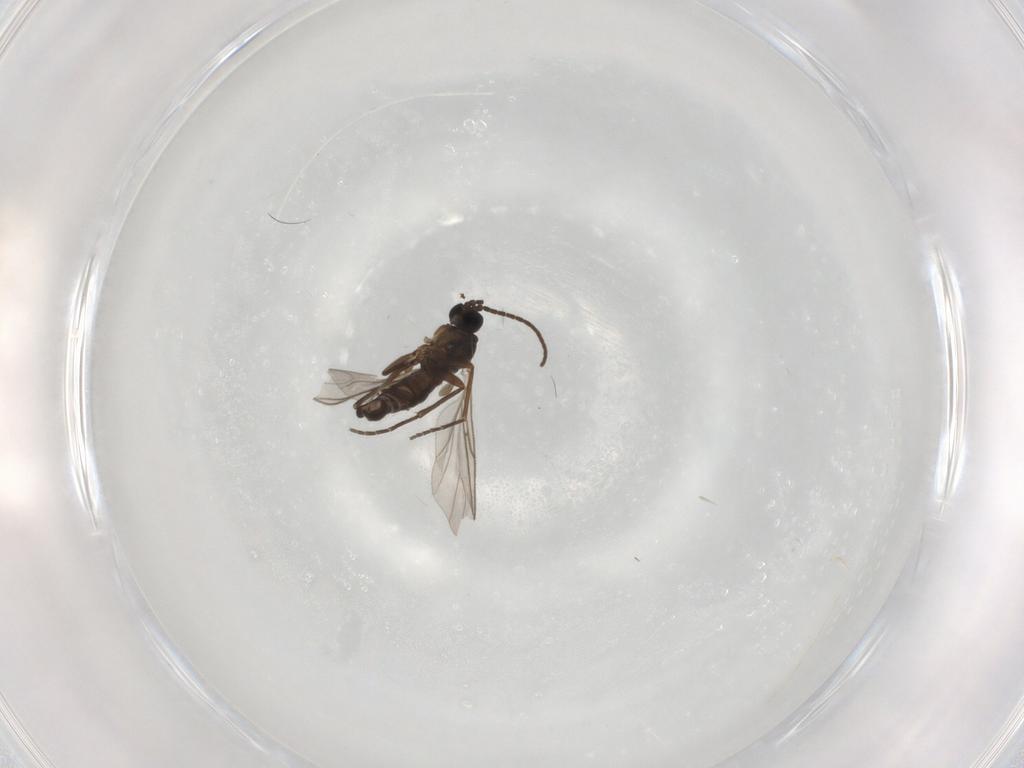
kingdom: Animalia
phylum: Arthropoda
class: Insecta
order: Diptera
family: Sciaridae
